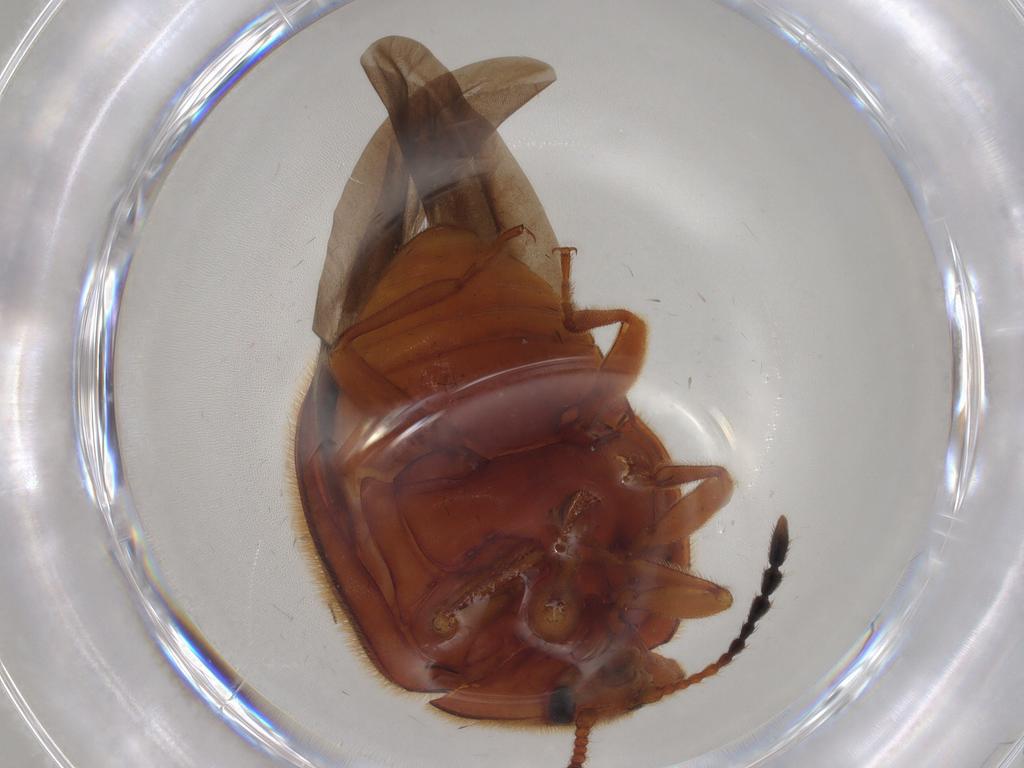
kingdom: Animalia
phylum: Arthropoda
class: Insecta
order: Coleoptera
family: Endomychidae
